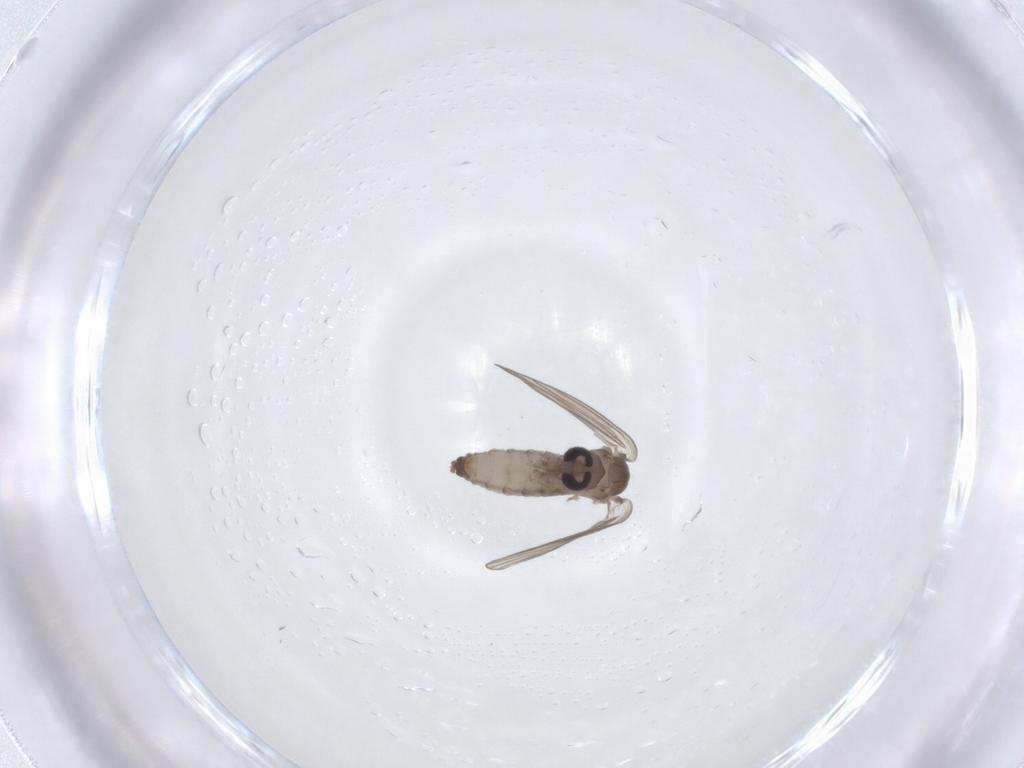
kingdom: Animalia
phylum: Arthropoda
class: Insecta
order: Diptera
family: Psychodidae
